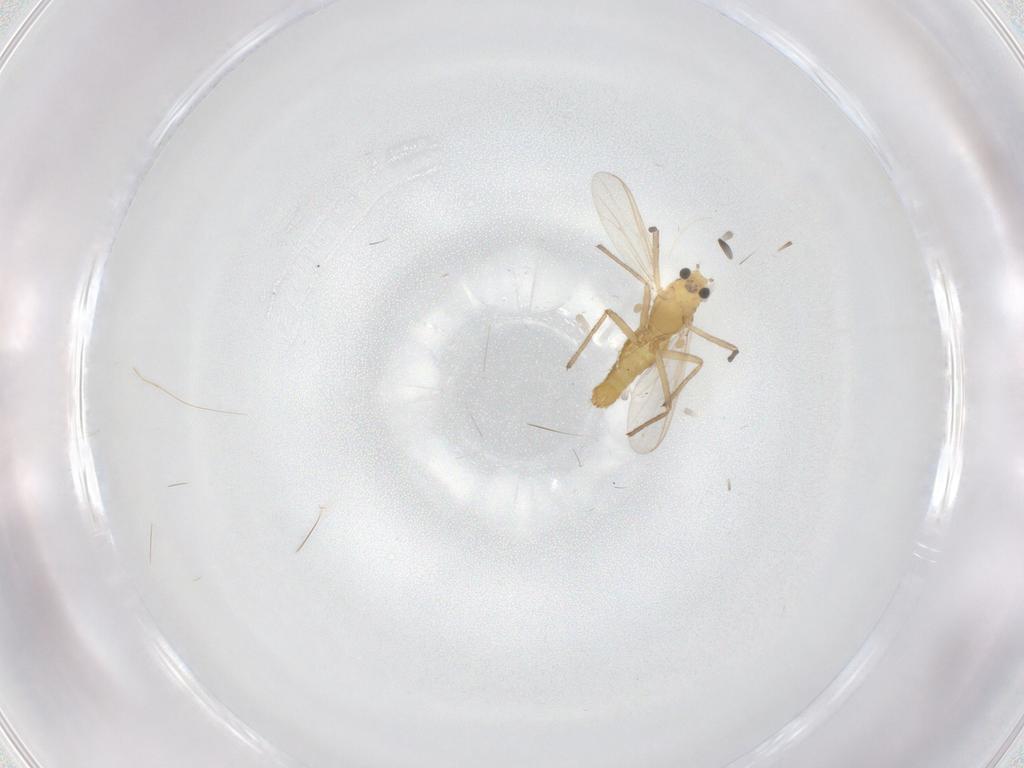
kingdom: Animalia
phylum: Arthropoda
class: Insecta
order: Diptera
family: Chironomidae
